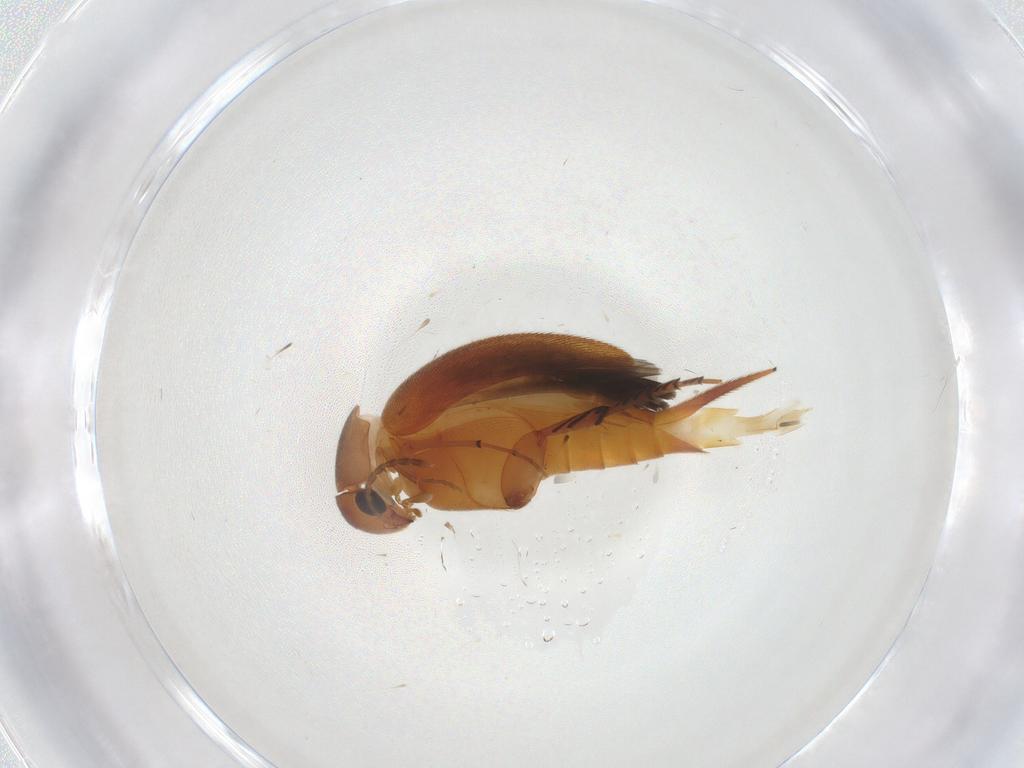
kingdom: Animalia
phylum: Arthropoda
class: Insecta
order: Coleoptera
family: Mordellidae
